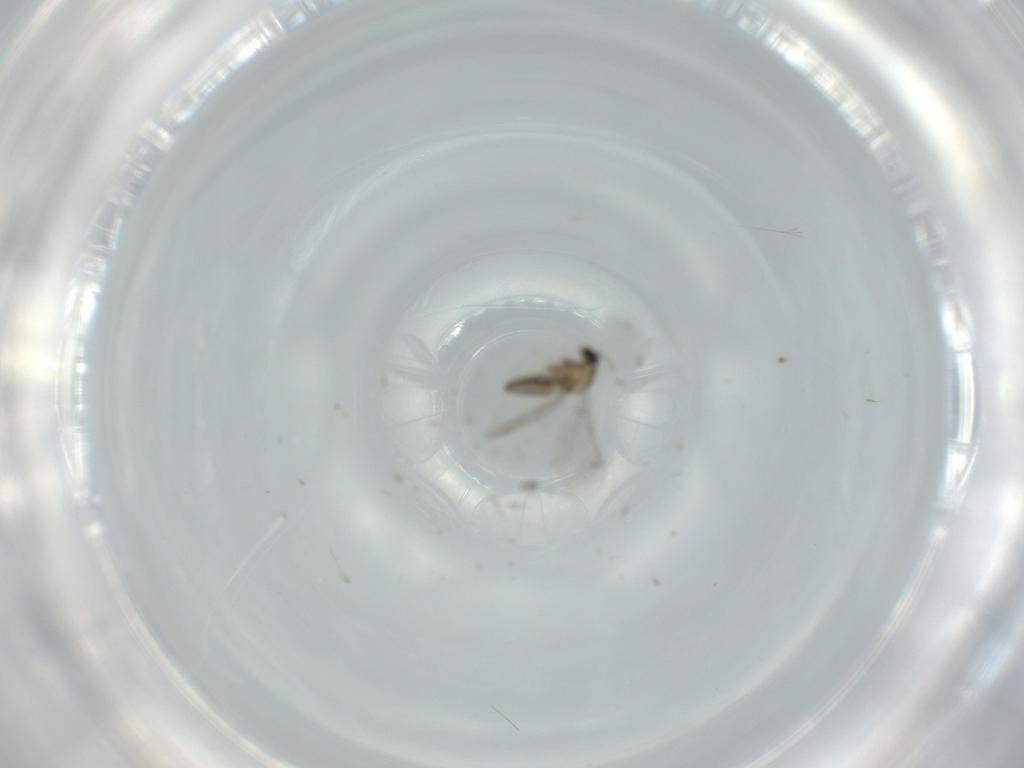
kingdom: Animalia
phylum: Arthropoda
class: Insecta
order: Diptera
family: Cecidomyiidae
